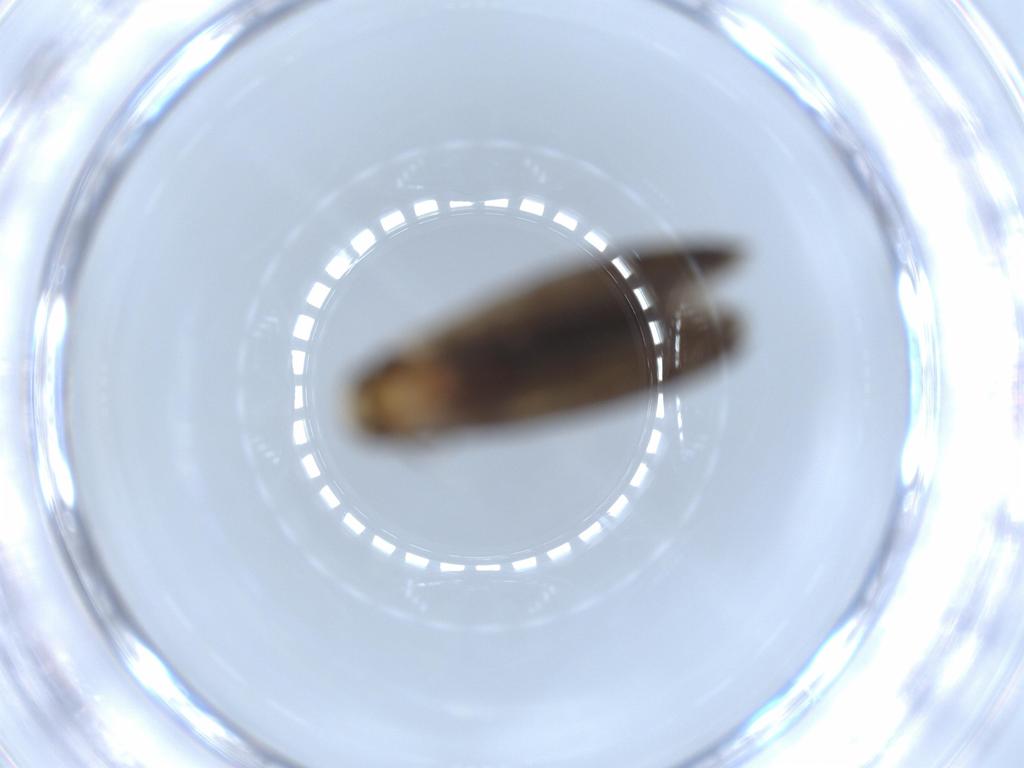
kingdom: Animalia
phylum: Arthropoda
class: Insecta
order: Lepidoptera
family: Tineidae
